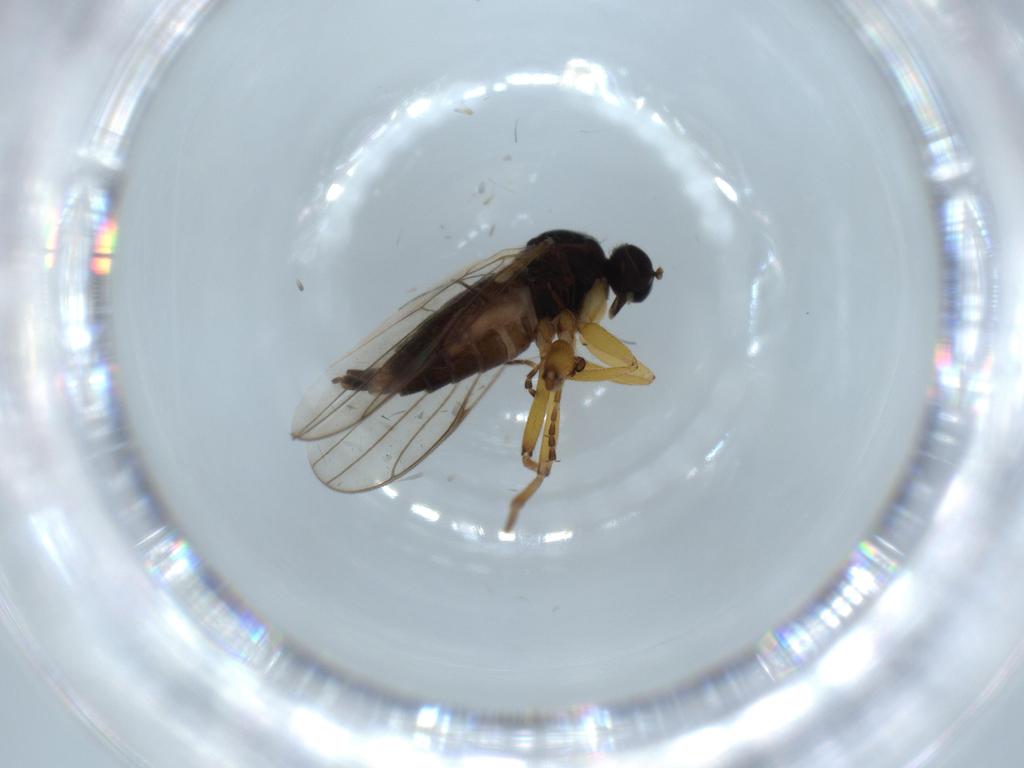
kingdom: Animalia
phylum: Arthropoda
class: Insecta
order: Diptera
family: Hybotidae
